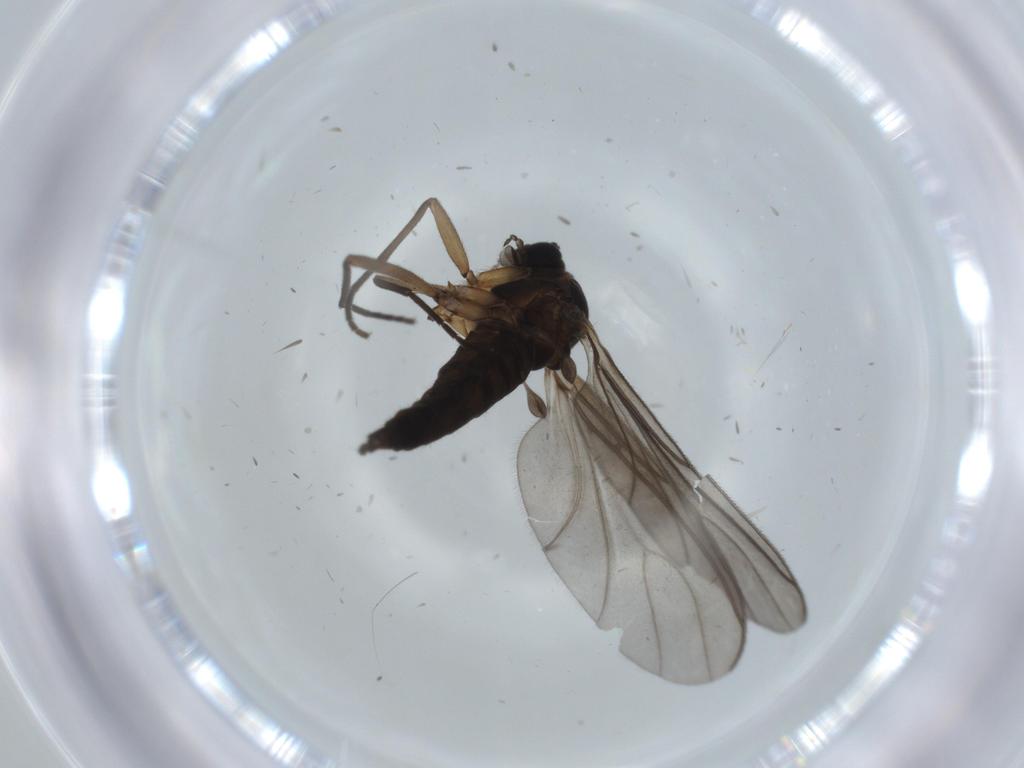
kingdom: Animalia
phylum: Arthropoda
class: Insecta
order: Diptera
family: Sciaridae
